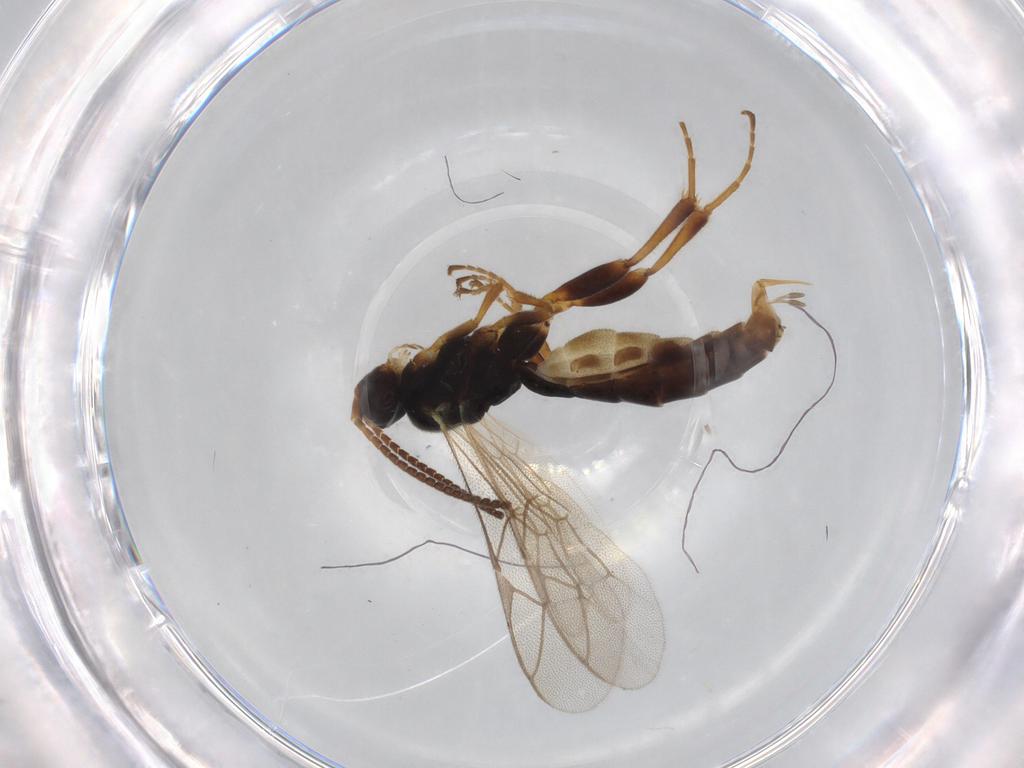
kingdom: Animalia
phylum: Arthropoda
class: Insecta
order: Hymenoptera
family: Ichneumonidae
